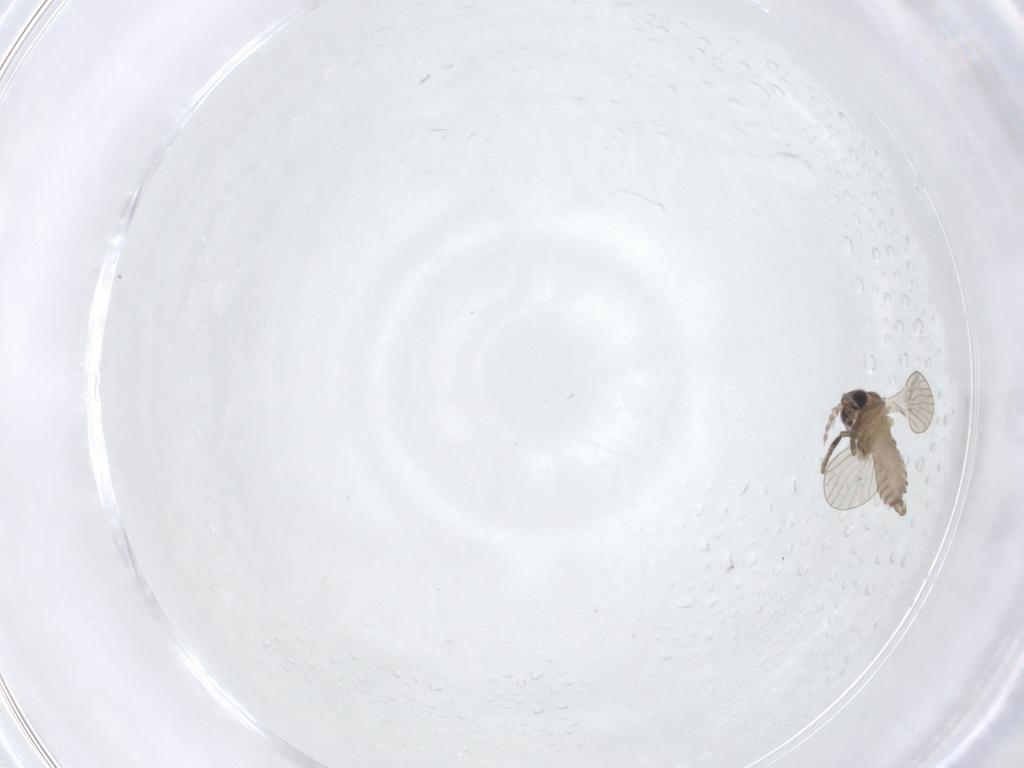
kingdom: Animalia
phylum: Arthropoda
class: Insecta
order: Diptera
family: Psychodidae
